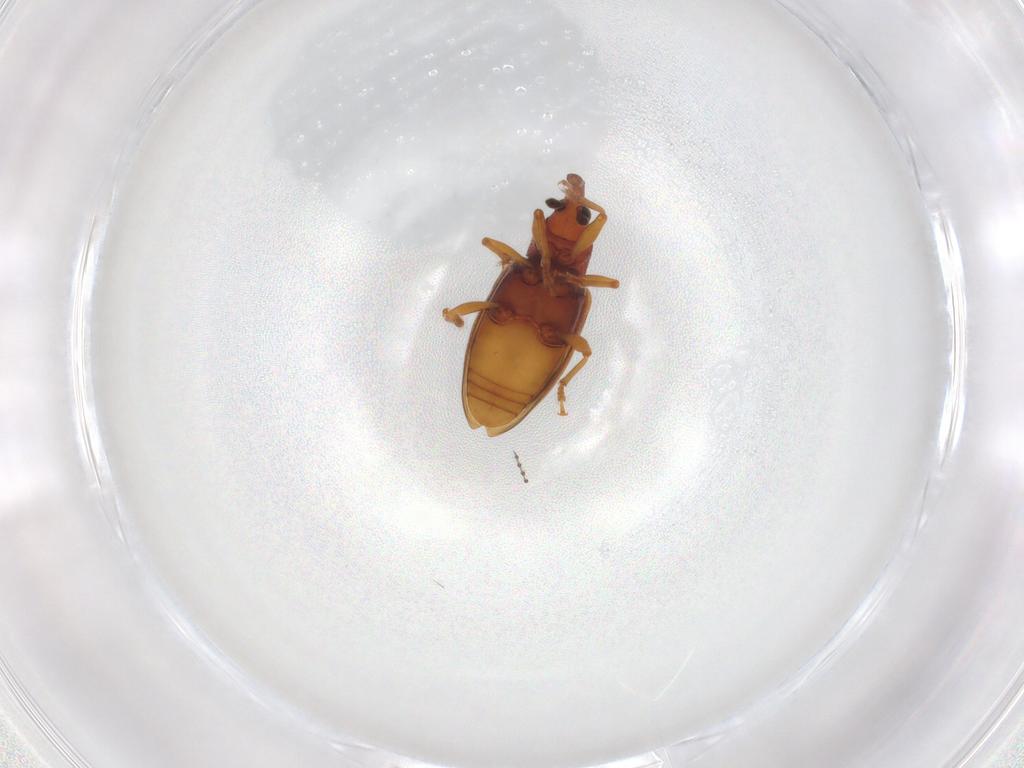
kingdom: Animalia
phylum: Arthropoda
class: Insecta
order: Coleoptera
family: Curculionidae
